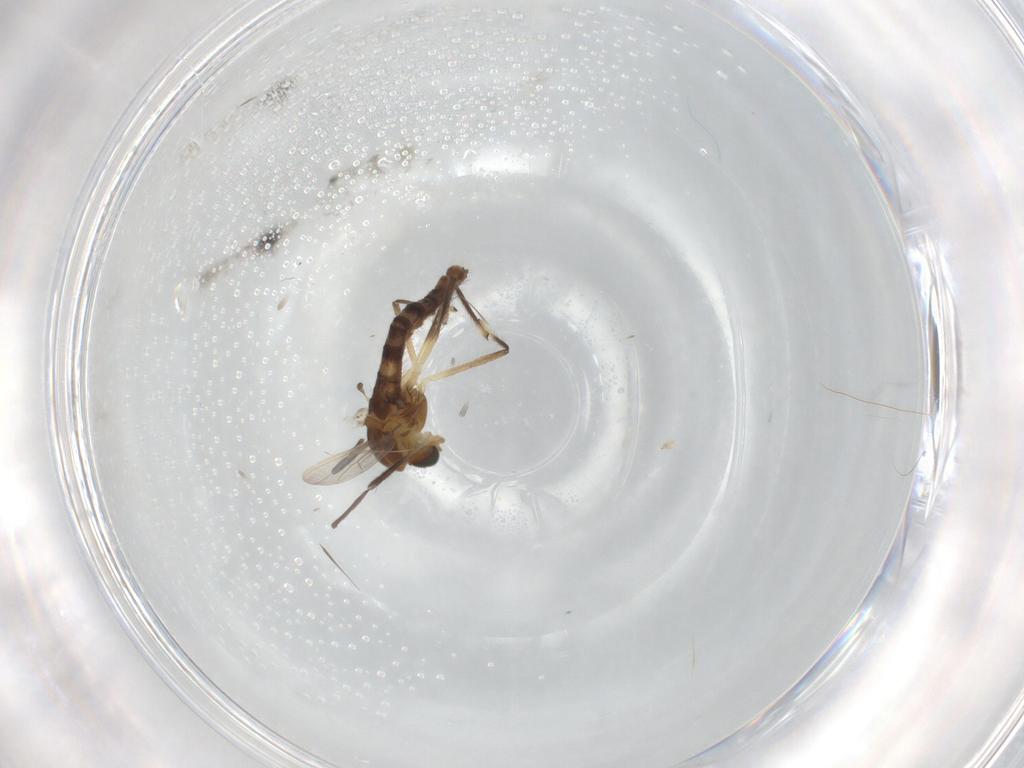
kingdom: Animalia
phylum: Arthropoda
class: Insecta
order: Diptera
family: Chironomidae
